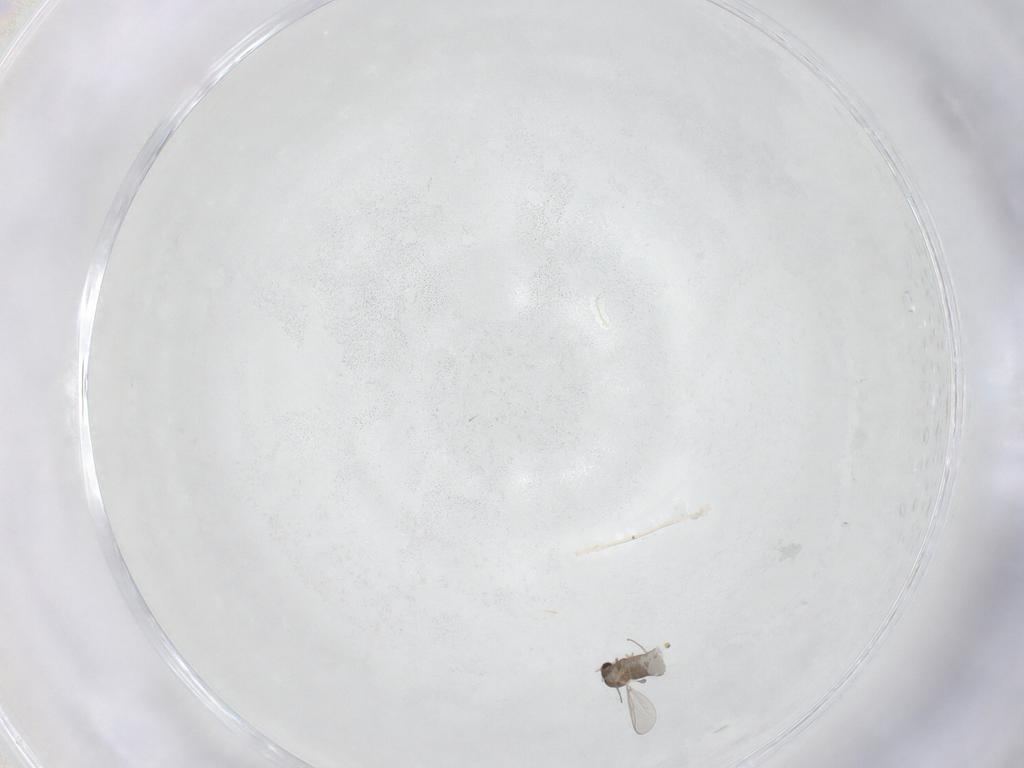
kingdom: Animalia
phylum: Arthropoda
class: Insecta
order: Diptera
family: Chironomidae
